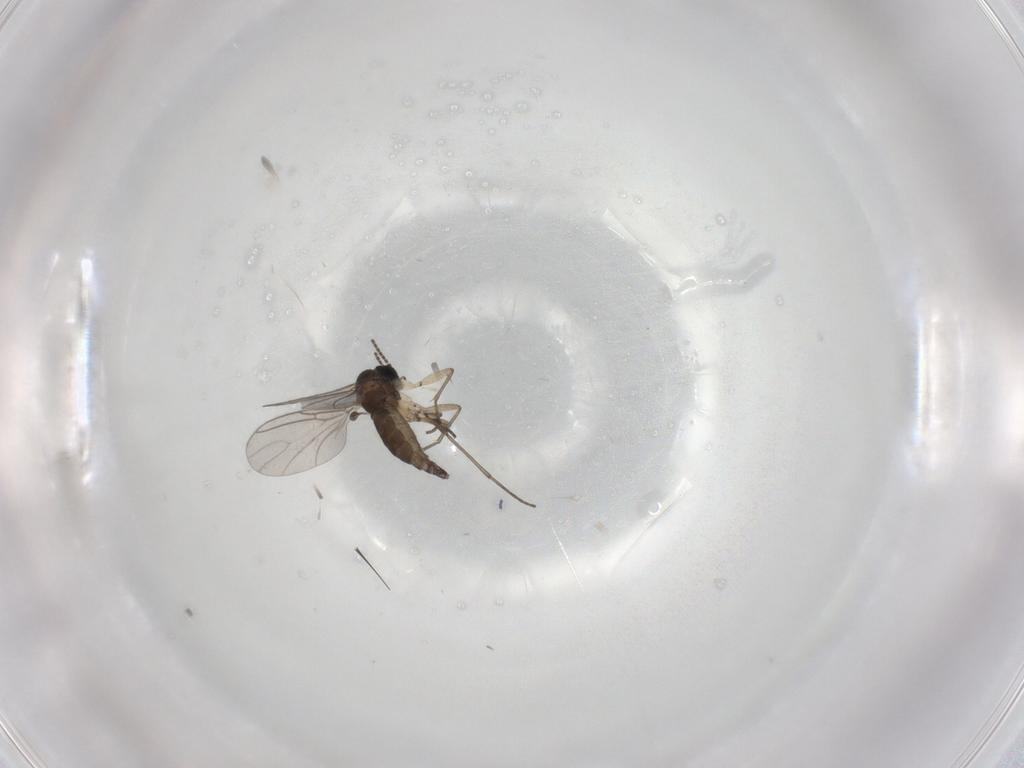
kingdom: Animalia
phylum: Arthropoda
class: Insecta
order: Diptera
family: Sciaridae
